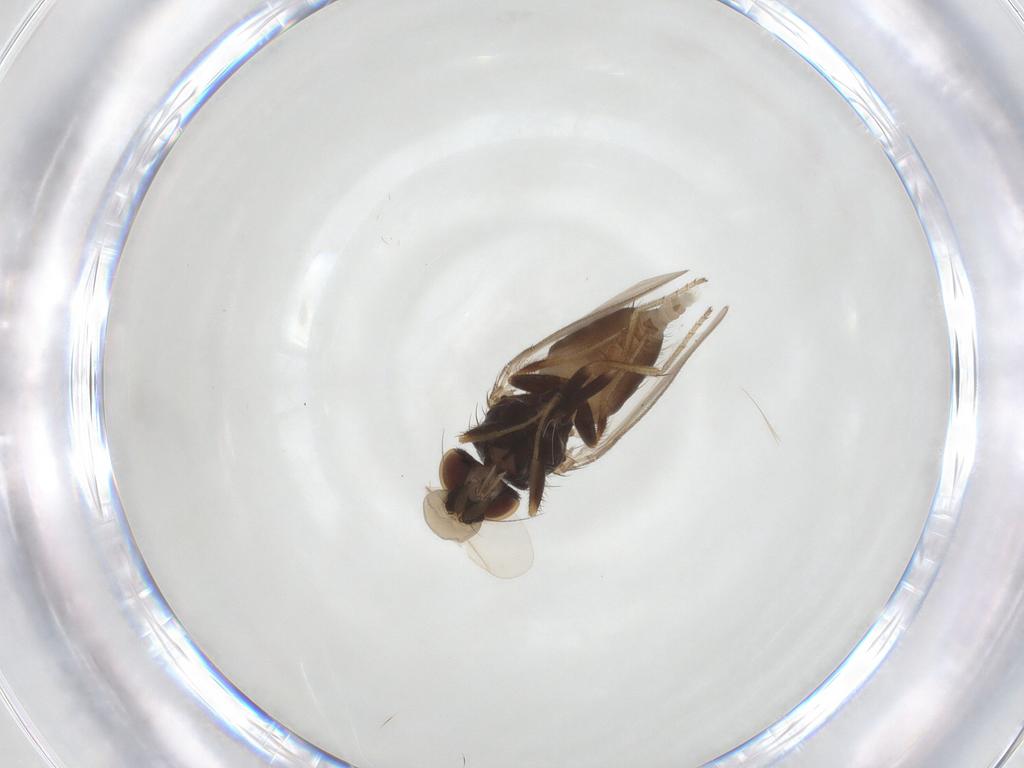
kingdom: Animalia
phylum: Arthropoda
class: Insecta
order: Diptera
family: Milichiidae
